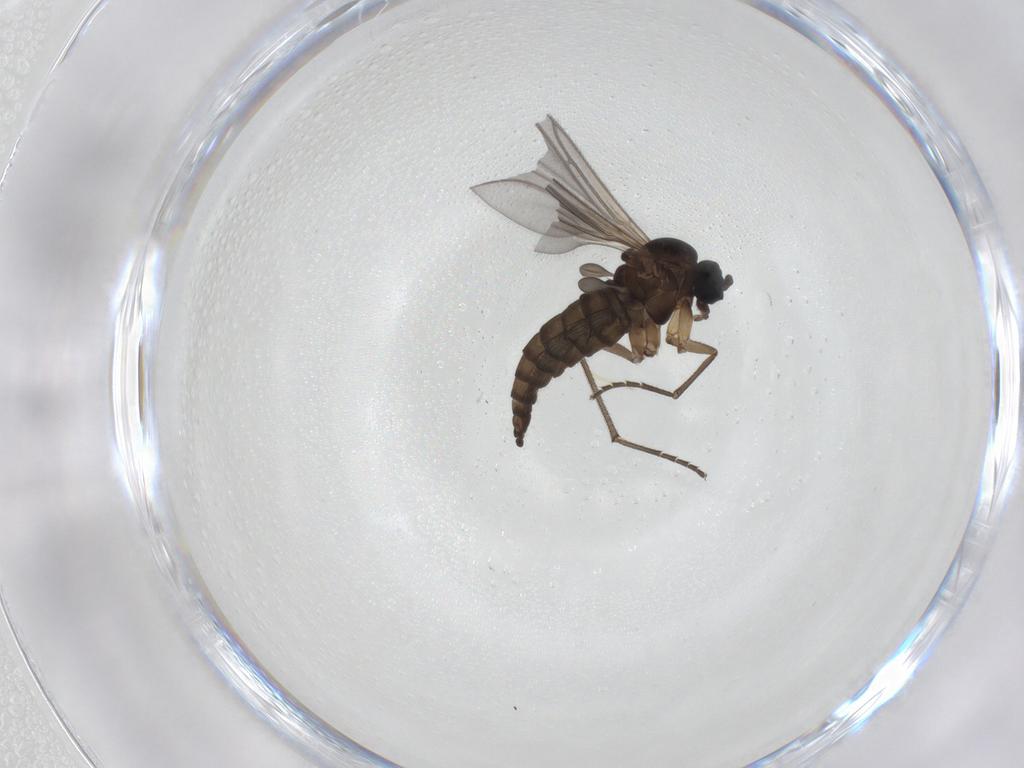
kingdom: Animalia
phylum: Arthropoda
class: Insecta
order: Diptera
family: Sciaridae
